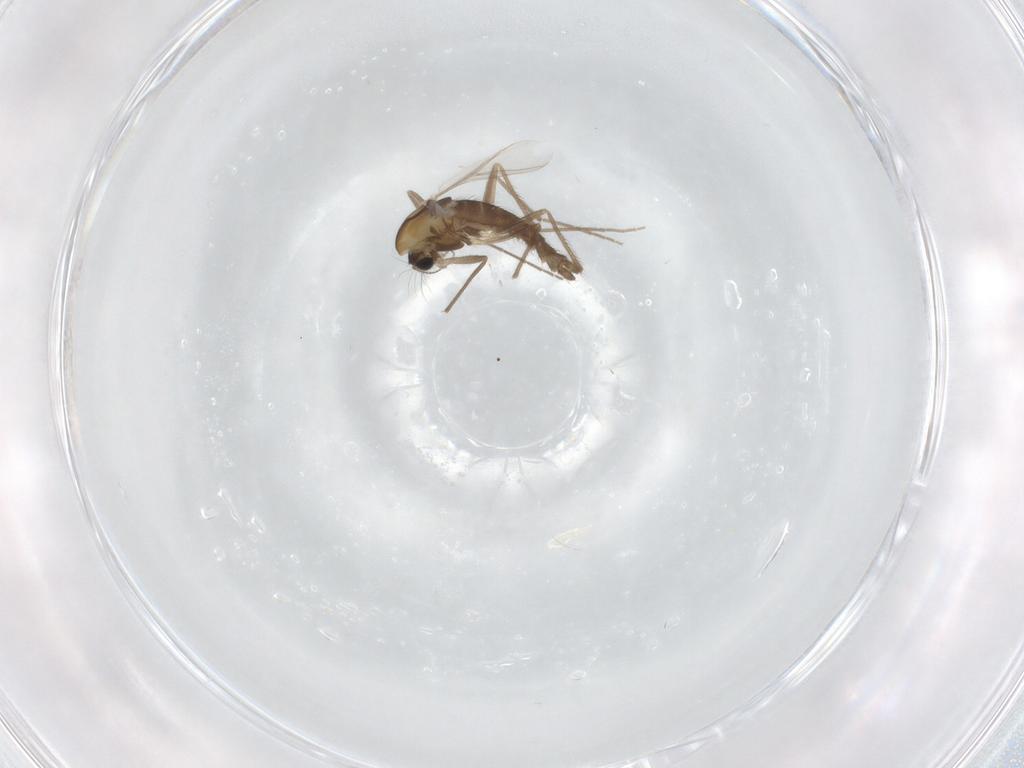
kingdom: Animalia
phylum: Arthropoda
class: Insecta
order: Diptera
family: Chironomidae
